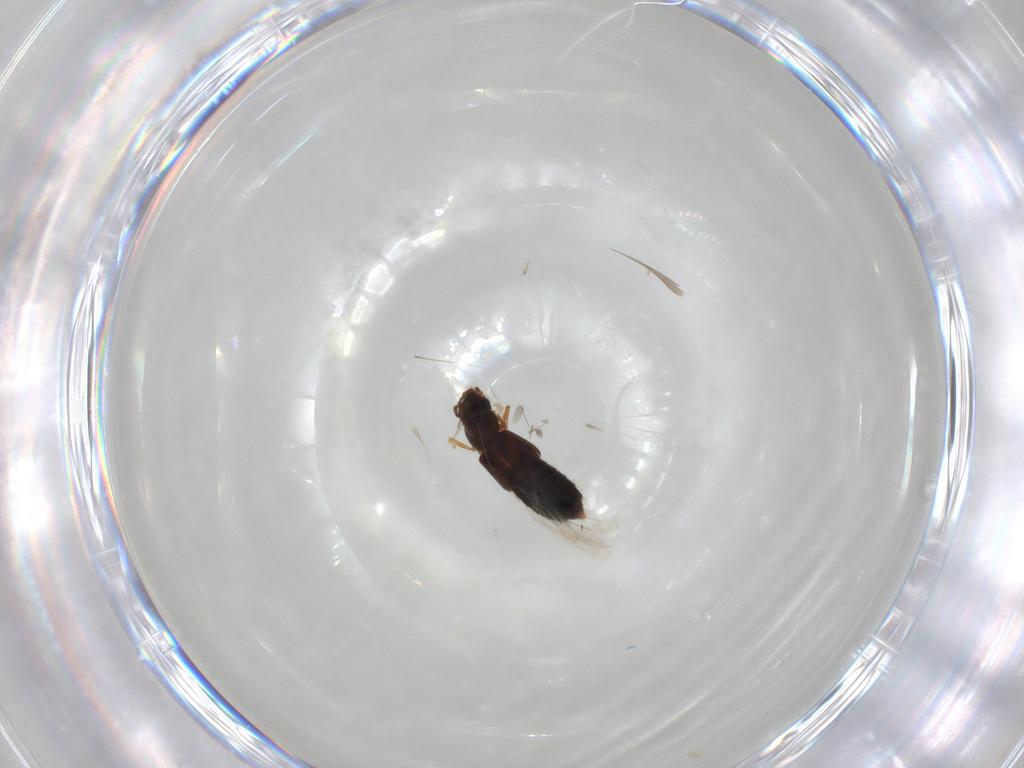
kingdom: Animalia
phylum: Arthropoda
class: Insecta
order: Coleoptera
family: Staphylinidae
